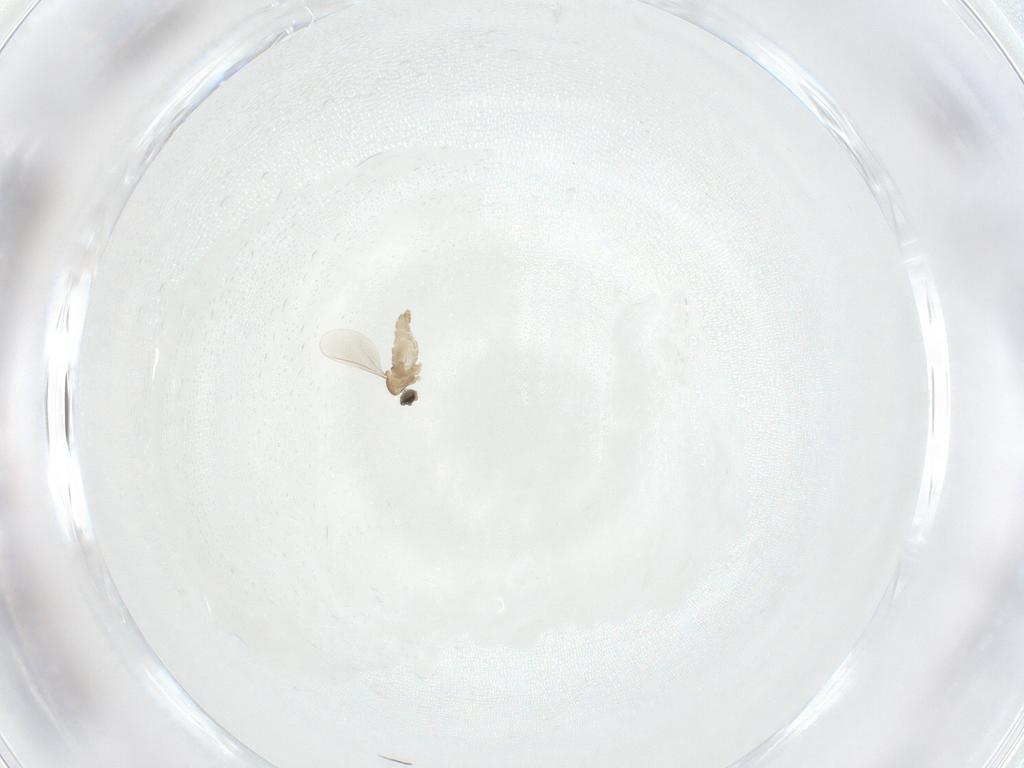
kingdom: Animalia
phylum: Arthropoda
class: Insecta
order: Diptera
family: Cecidomyiidae
